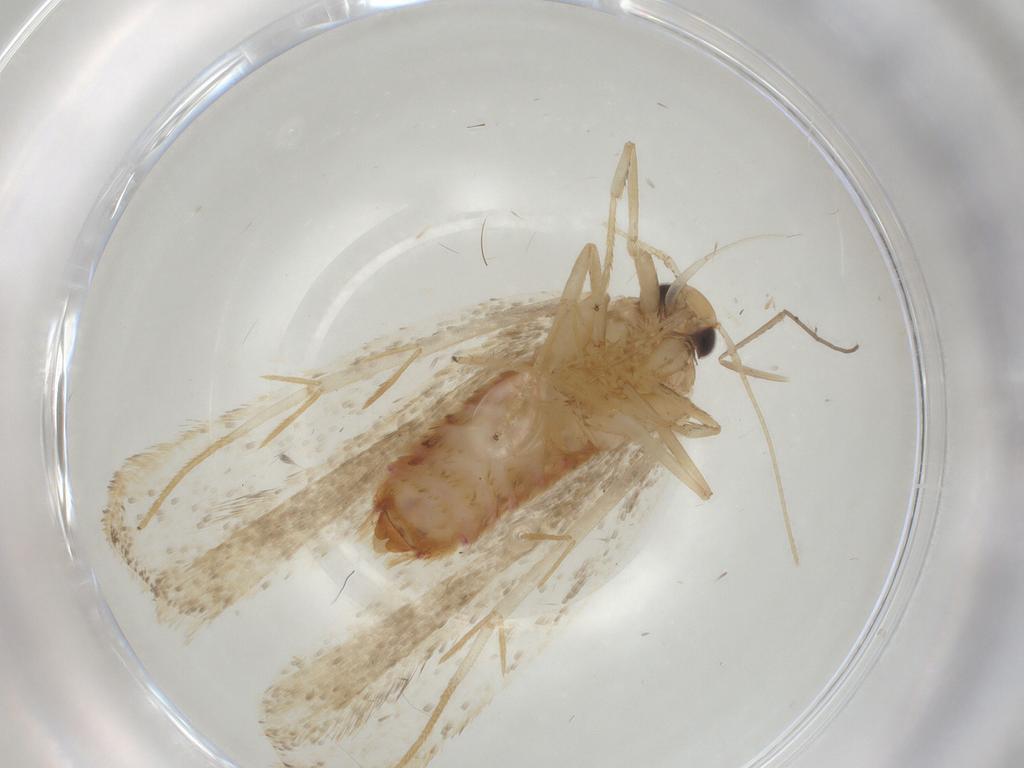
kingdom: Animalia
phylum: Arthropoda
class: Insecta
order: Lepidoptera
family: Lecithoceridae
